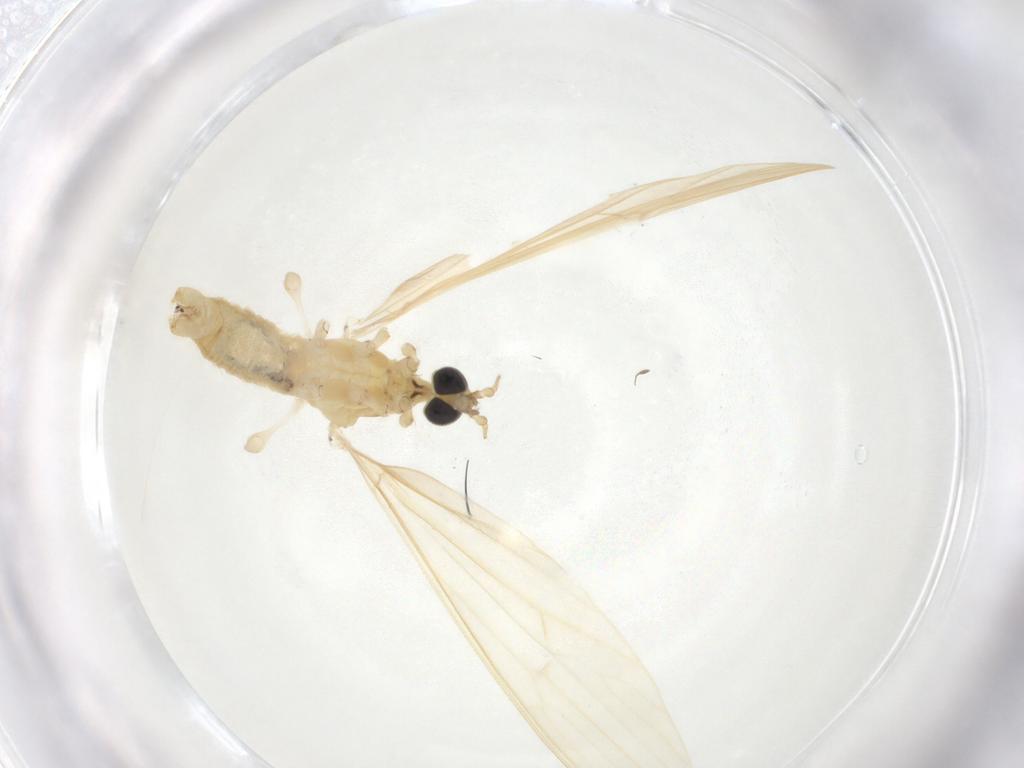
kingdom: Animalia
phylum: Arthropoda
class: Insecta
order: Diptera
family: Limoniidae
